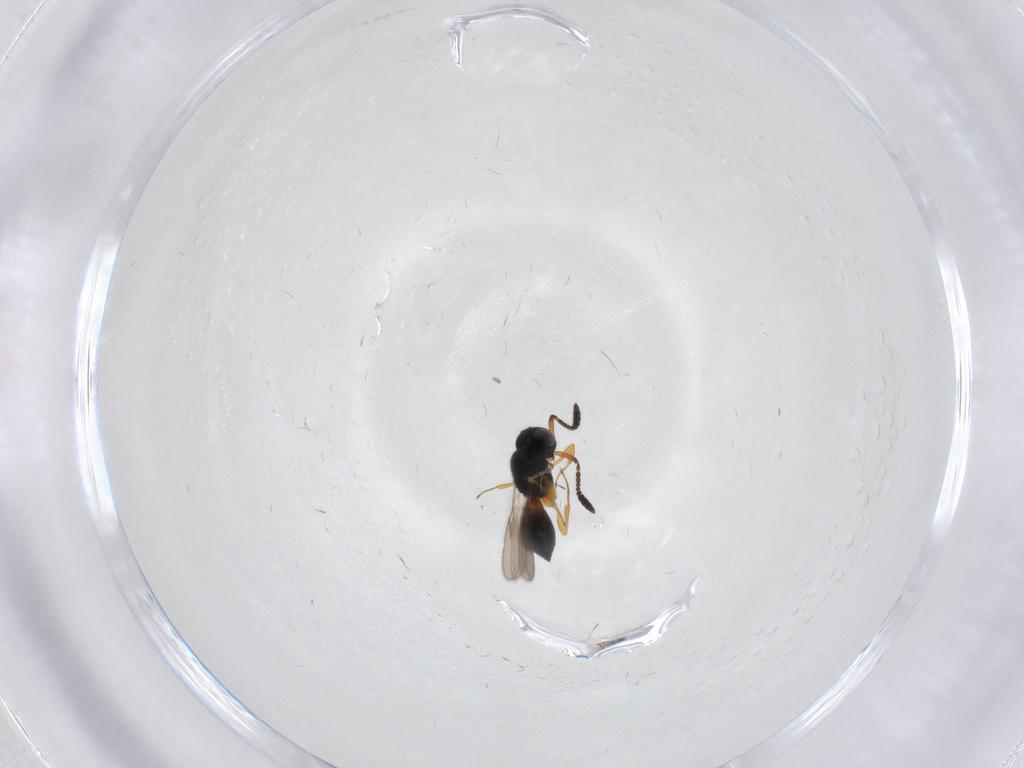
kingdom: Animalia
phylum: Arthropoda
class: Insecta
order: Hymenoptera
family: Scelionidae
